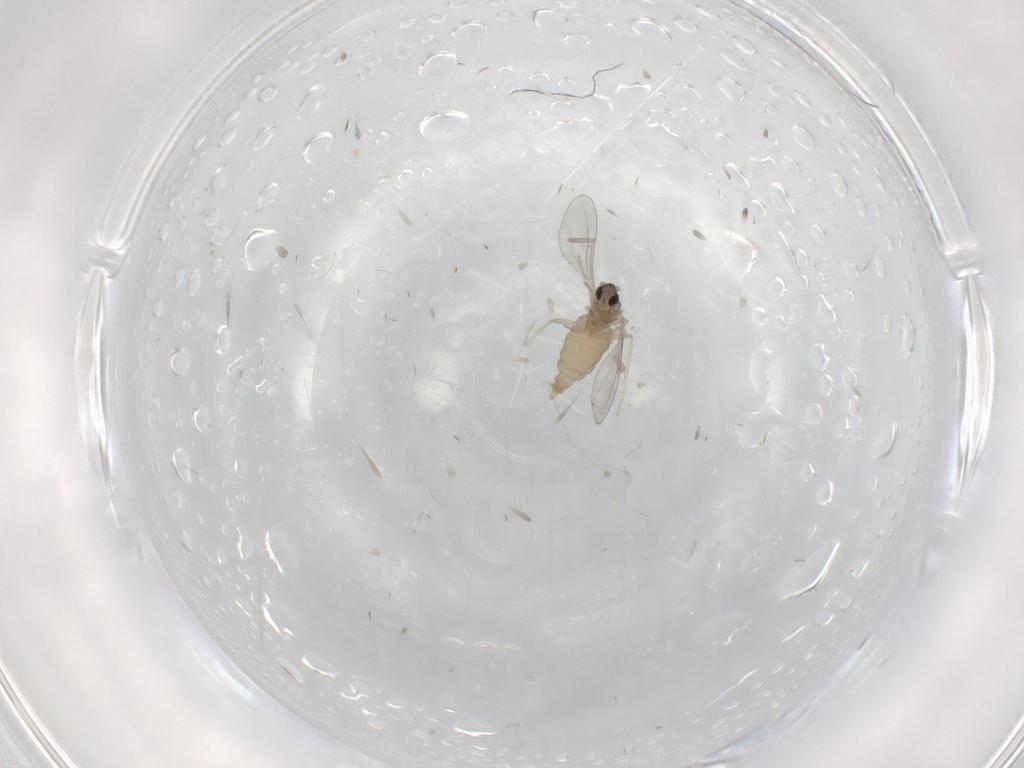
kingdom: Animalia
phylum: Arthropoda
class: Insecta
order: Diptera
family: Cecidomyiidae
